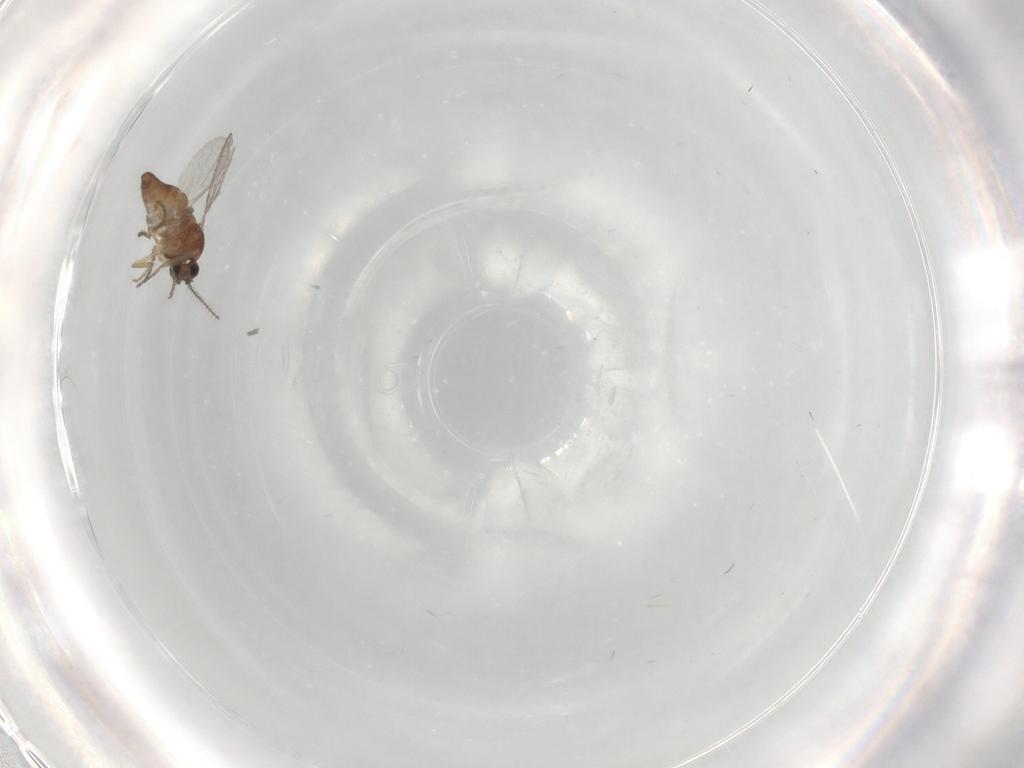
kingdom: Animalia
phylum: Arthropoda
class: Insecta
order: Diptera
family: Ceratopogonidae
